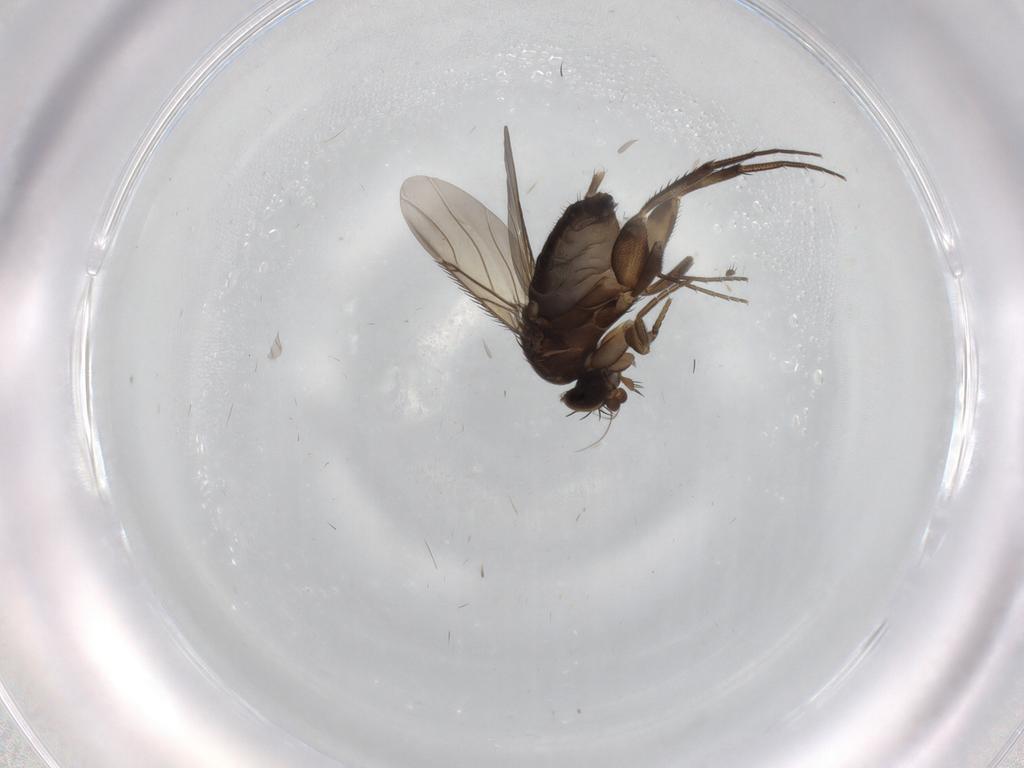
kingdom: Animalia
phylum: Arthropoda
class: Insecta
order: Diptera
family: Phoridae
